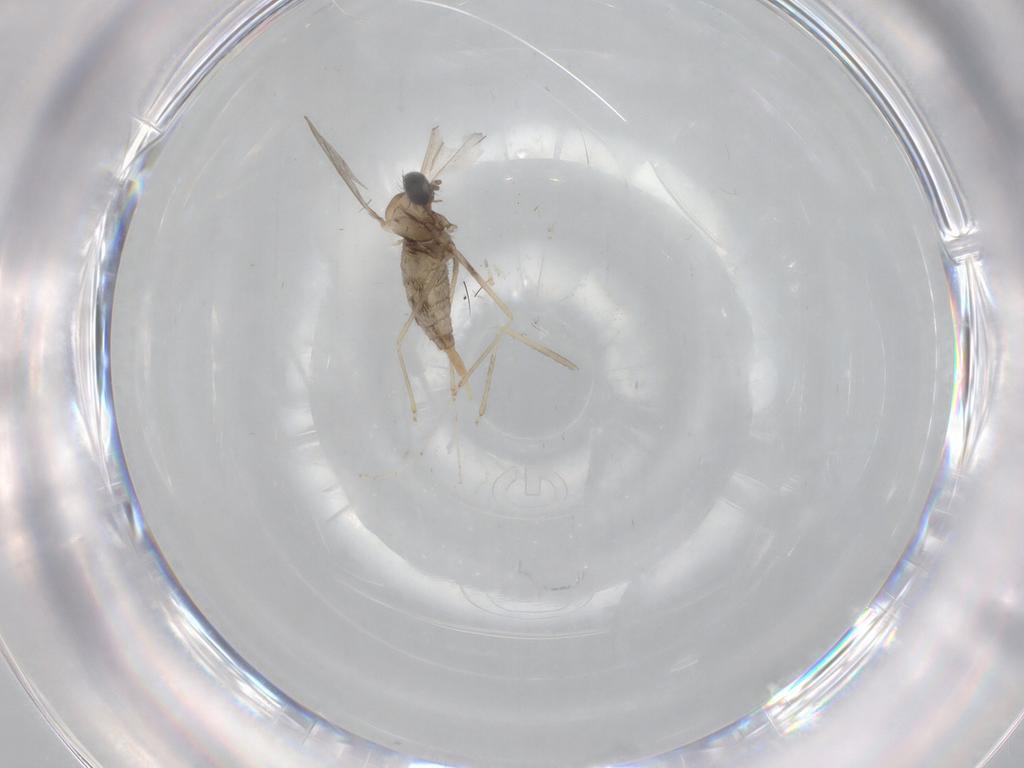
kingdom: Animalia
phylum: Arthropoda
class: Insecta
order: Diptera
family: Cecidomyiidae
